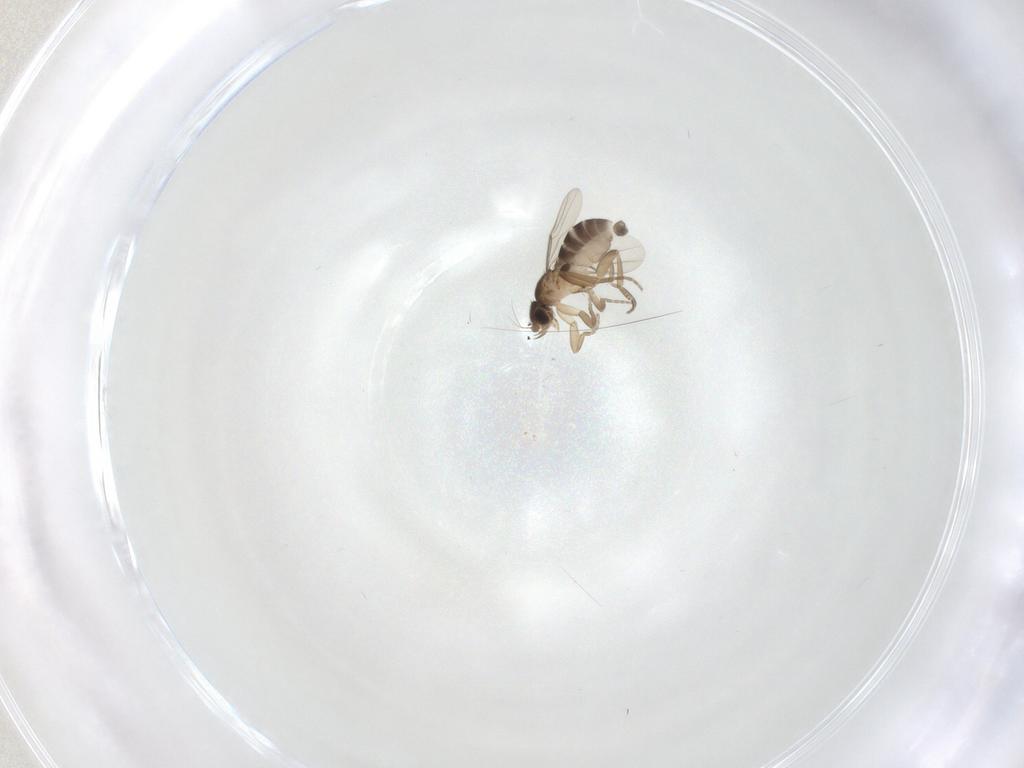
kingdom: Animalia
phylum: Arthropoda
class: Insecta
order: Diptera
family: Phoridae
